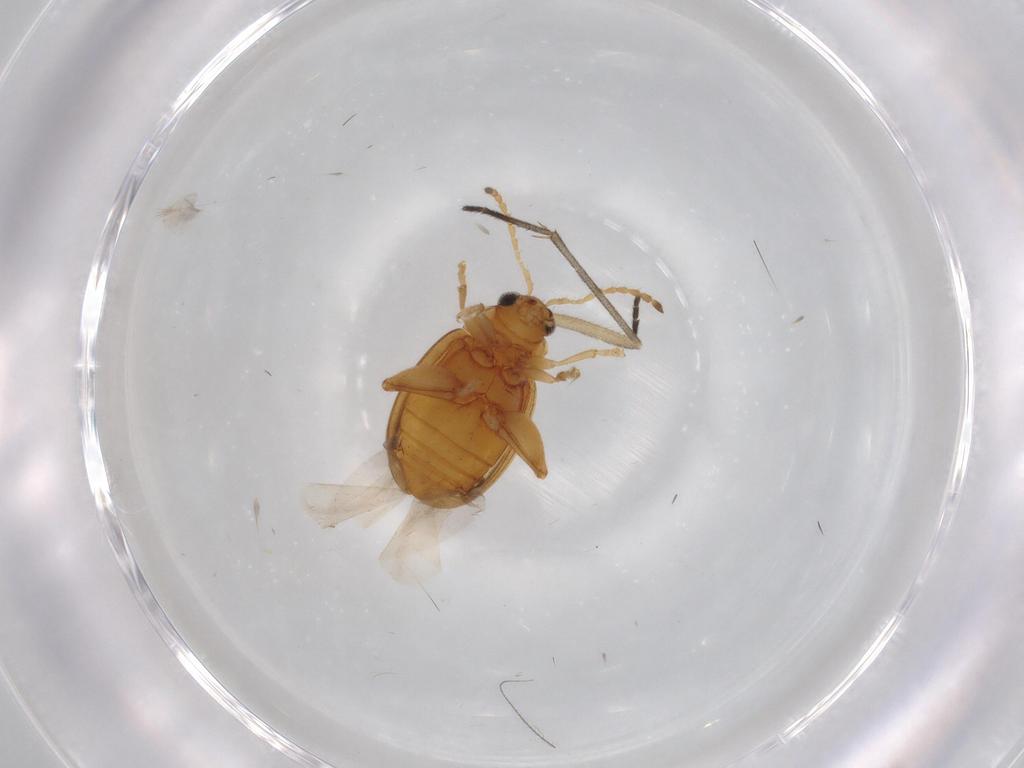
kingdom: Animalia
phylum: Arthropoda
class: Insecta
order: Coleoptera
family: Chrysomelidae
